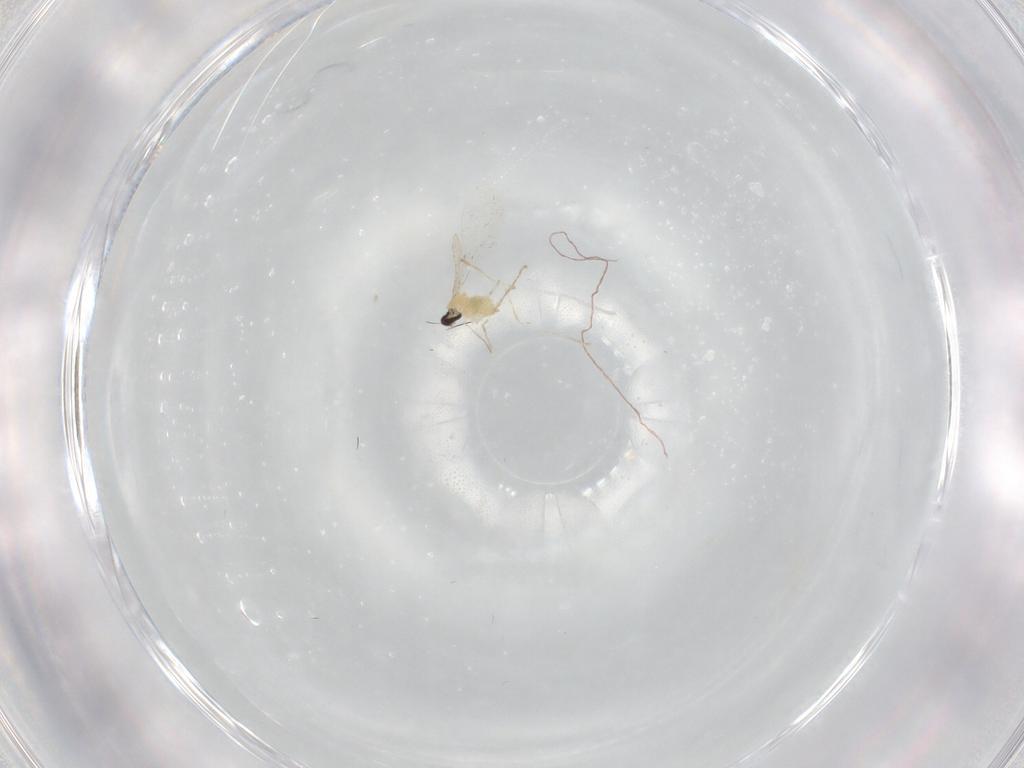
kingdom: Animalia
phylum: Arthropoda
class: Insecta
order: Diptera
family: Cecidomyiidae
